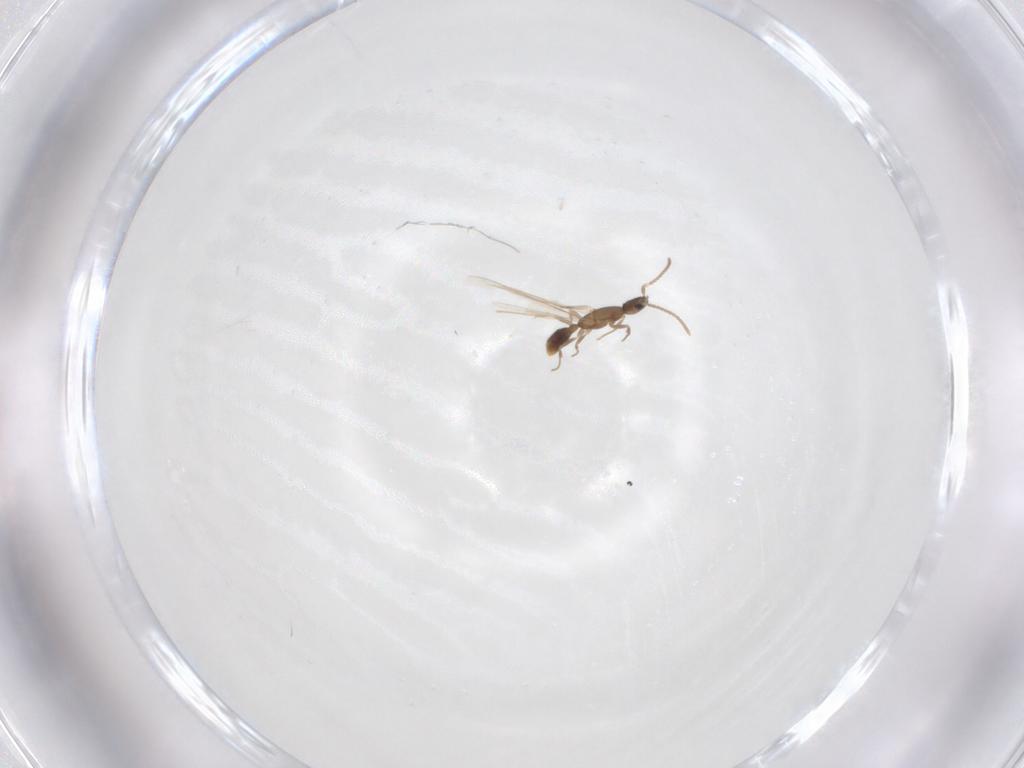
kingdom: Animalia
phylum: Arthropoda
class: Insecta
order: Hymenoptera
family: Formicidae
